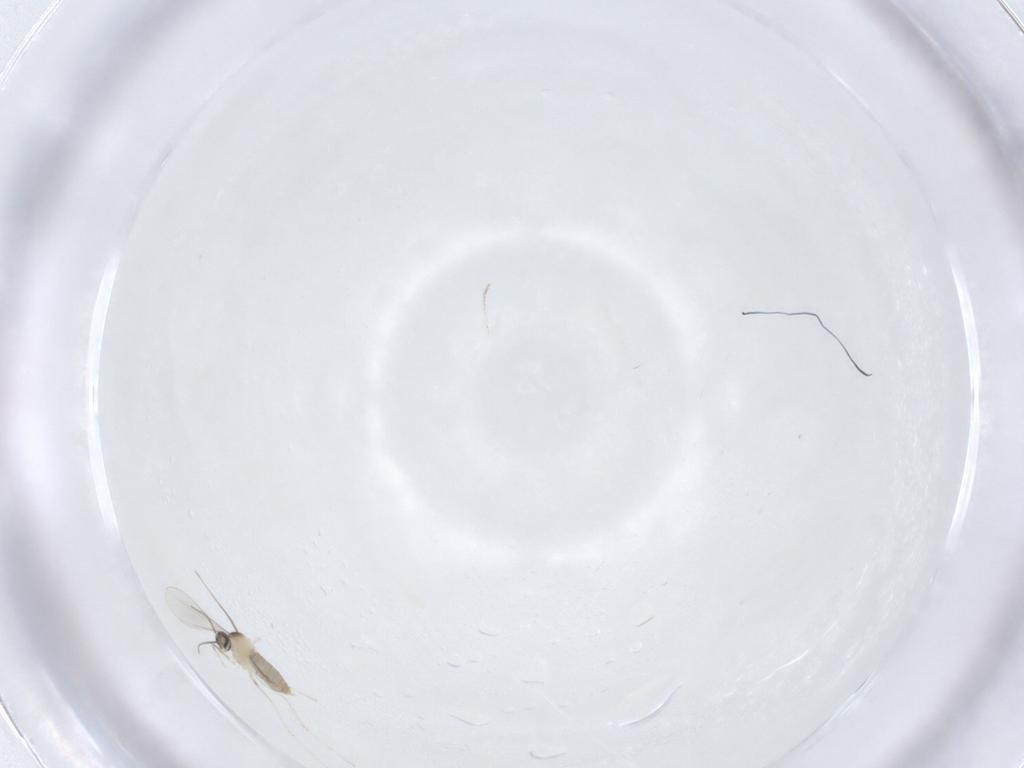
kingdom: Animalia
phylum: Arthropoda
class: Insecta
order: Diptera
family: Cecidomyiidae
